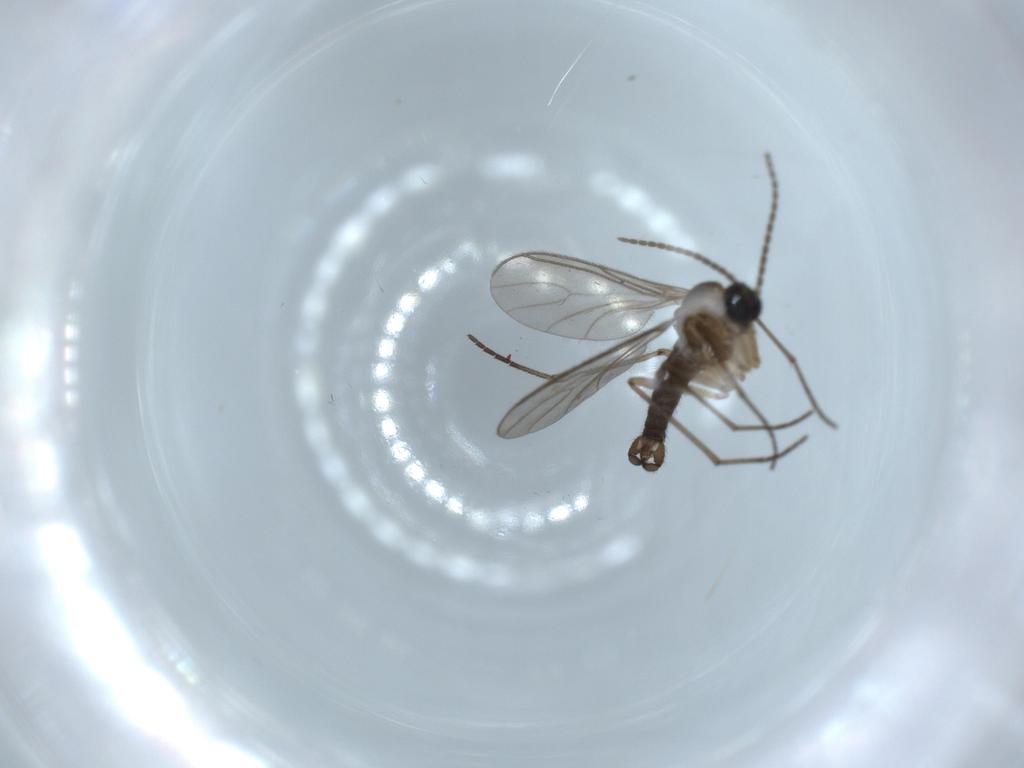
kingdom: Animalia
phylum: Arthropoda
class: Insecta
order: Diptera
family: Sciaridae
